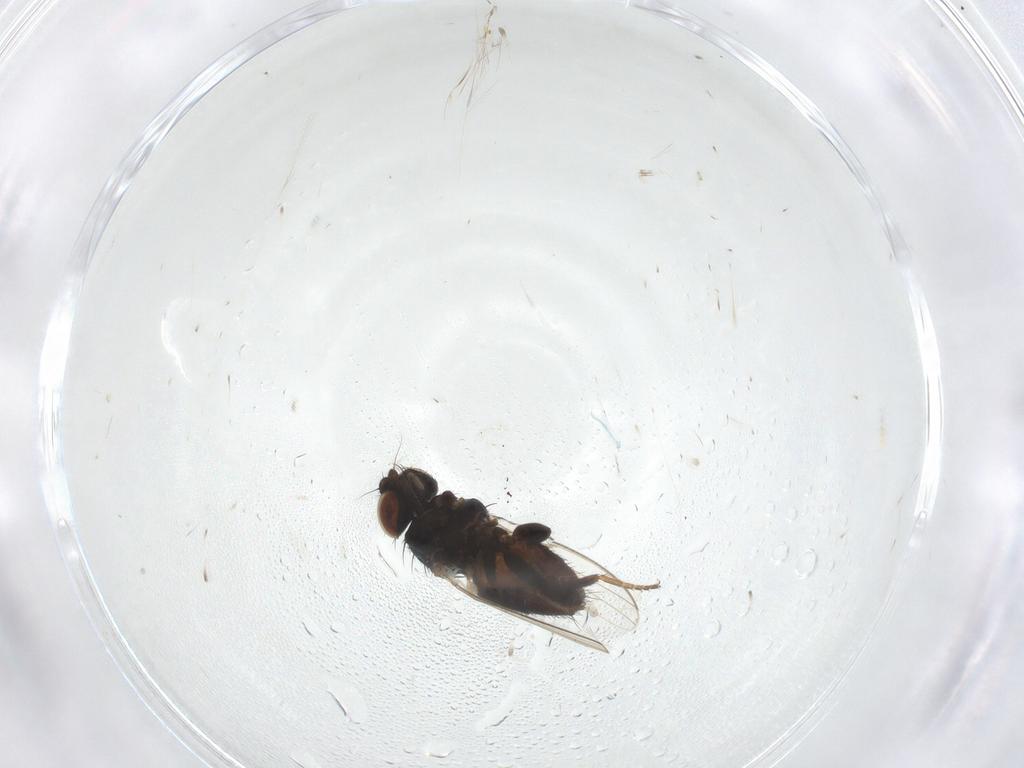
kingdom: Animalia
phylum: Arthropoda
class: Insecta
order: Diptera
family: Milichiidae
